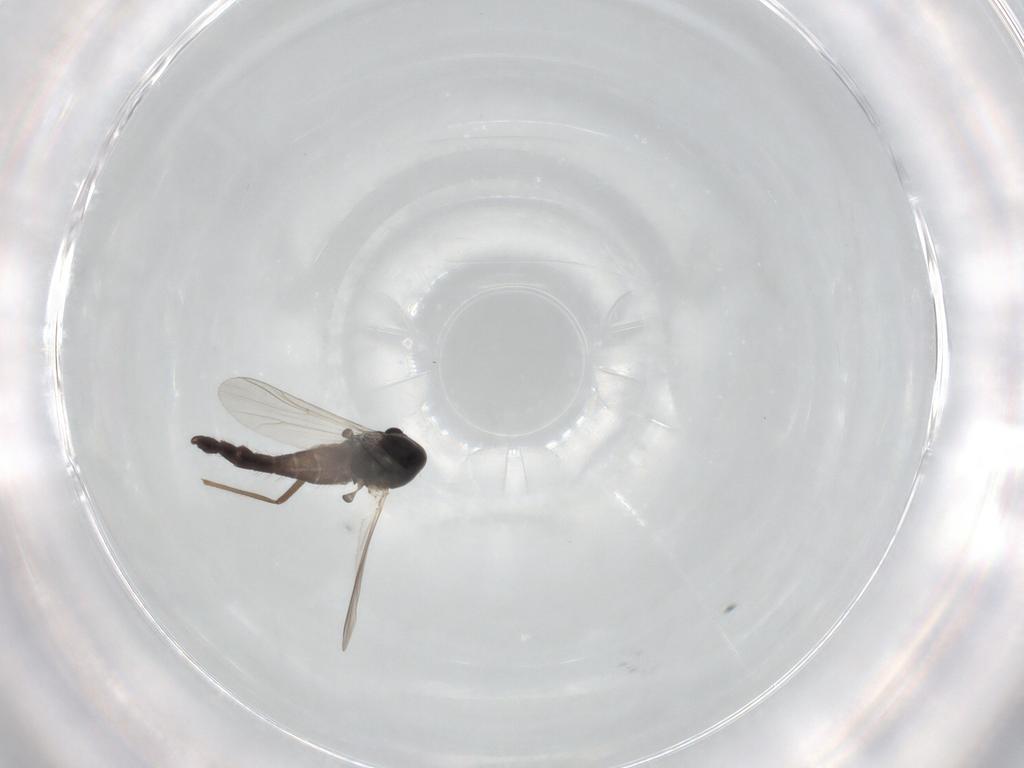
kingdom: Animalia
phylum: Arthropoda
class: Insecta
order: Diptera
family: Chironomidae
